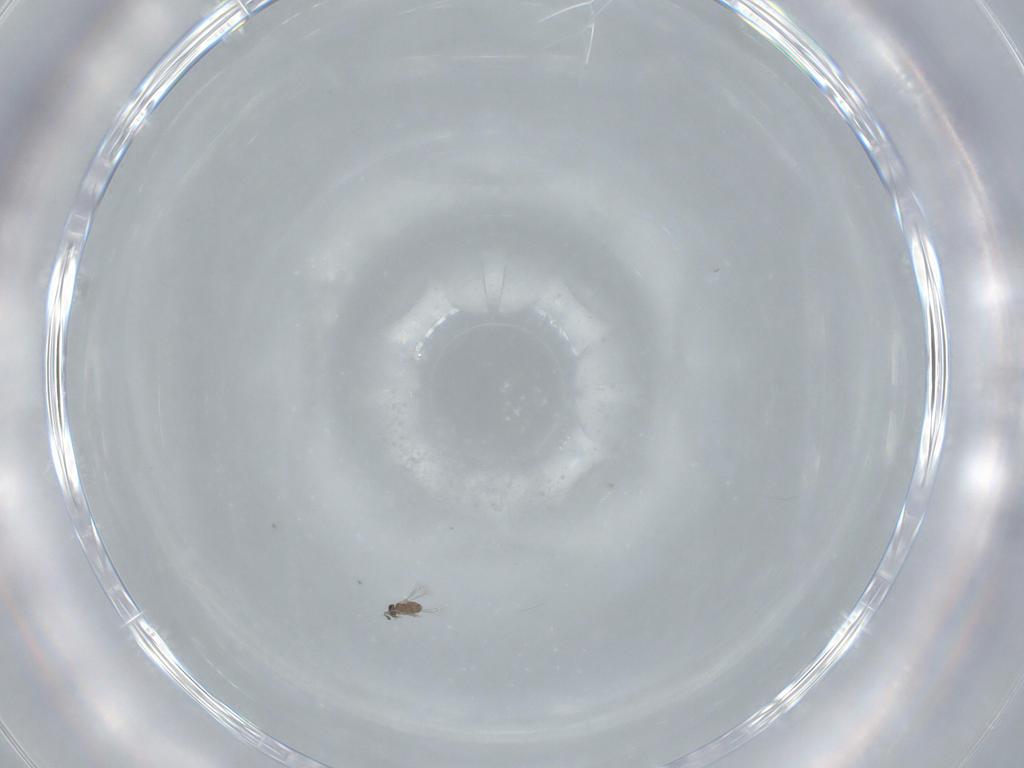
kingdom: Animalia
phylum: Arthropoda
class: Insecta
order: Hymenoptera
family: Mymaridae
